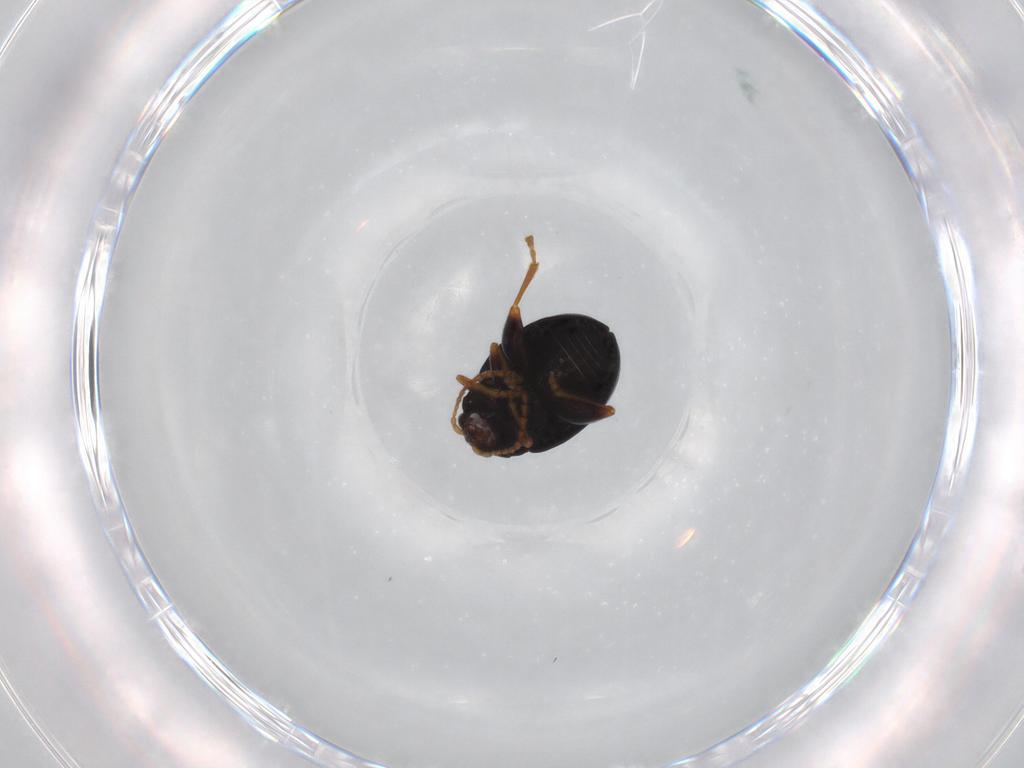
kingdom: Animalia
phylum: Arthropoda
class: Insecta
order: Coleoptera
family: Chrysomelidae
